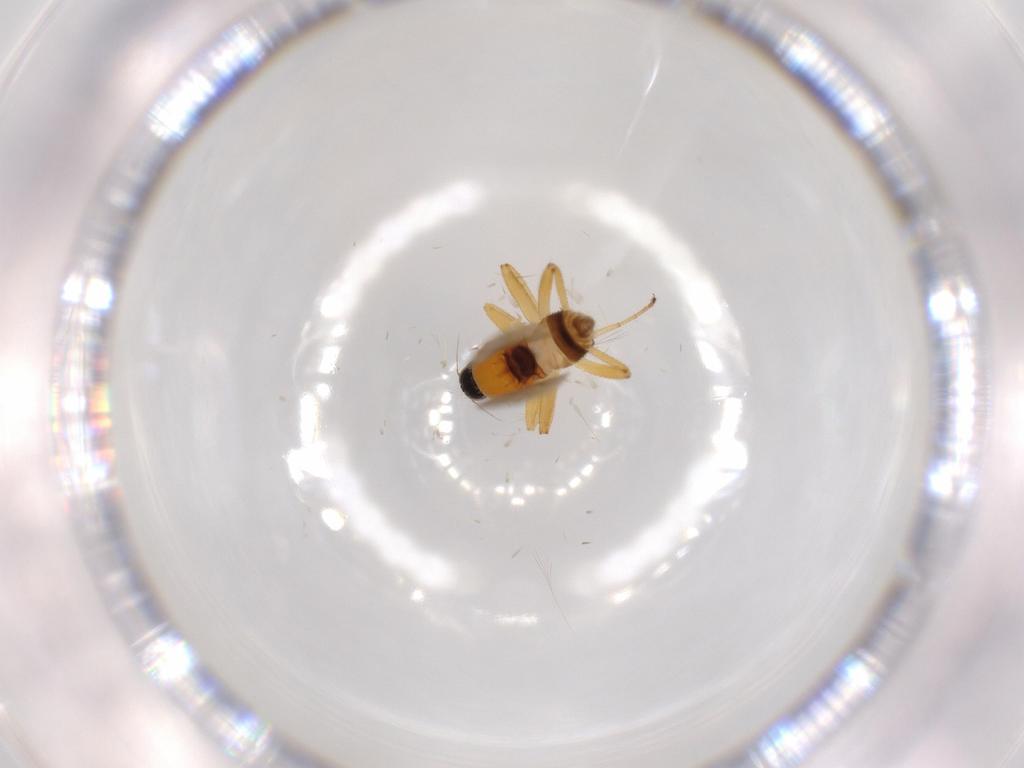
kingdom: Animalia
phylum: Arthropoda
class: Insecta
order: Diptera
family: Hybotidae
